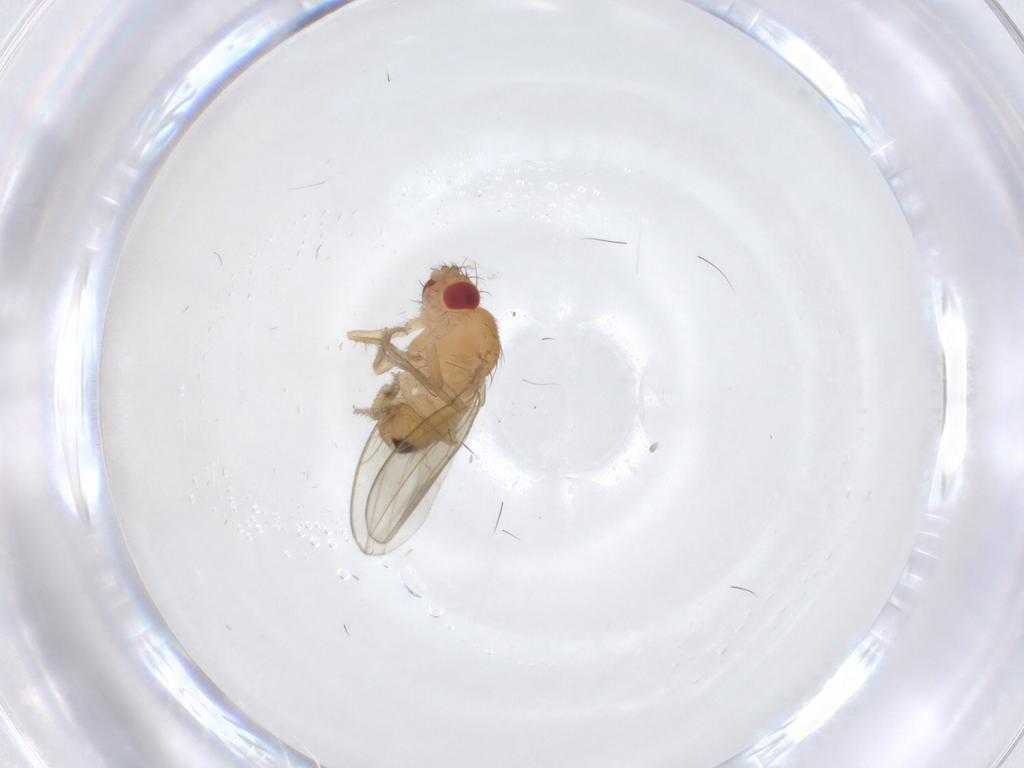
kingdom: Animalia
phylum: Arthropoda
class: Insecta
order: Diptera
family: Drosophilidae
